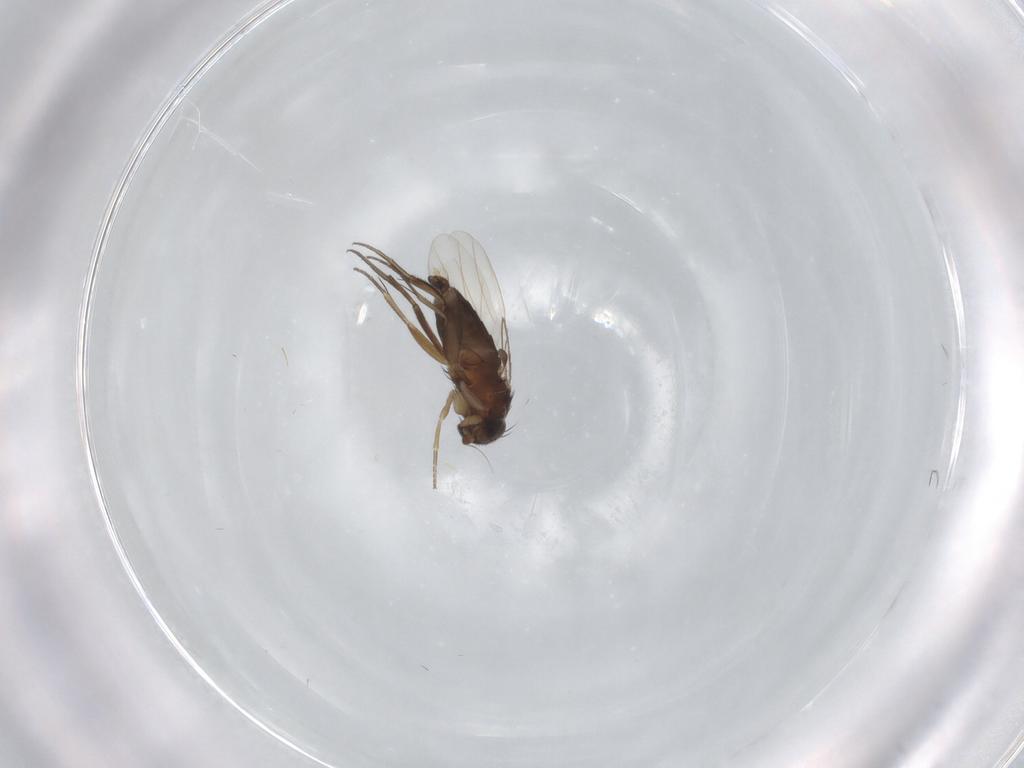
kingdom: Animalia
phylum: Arthropoda
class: Insecta
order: Diptera
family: Phoridae
